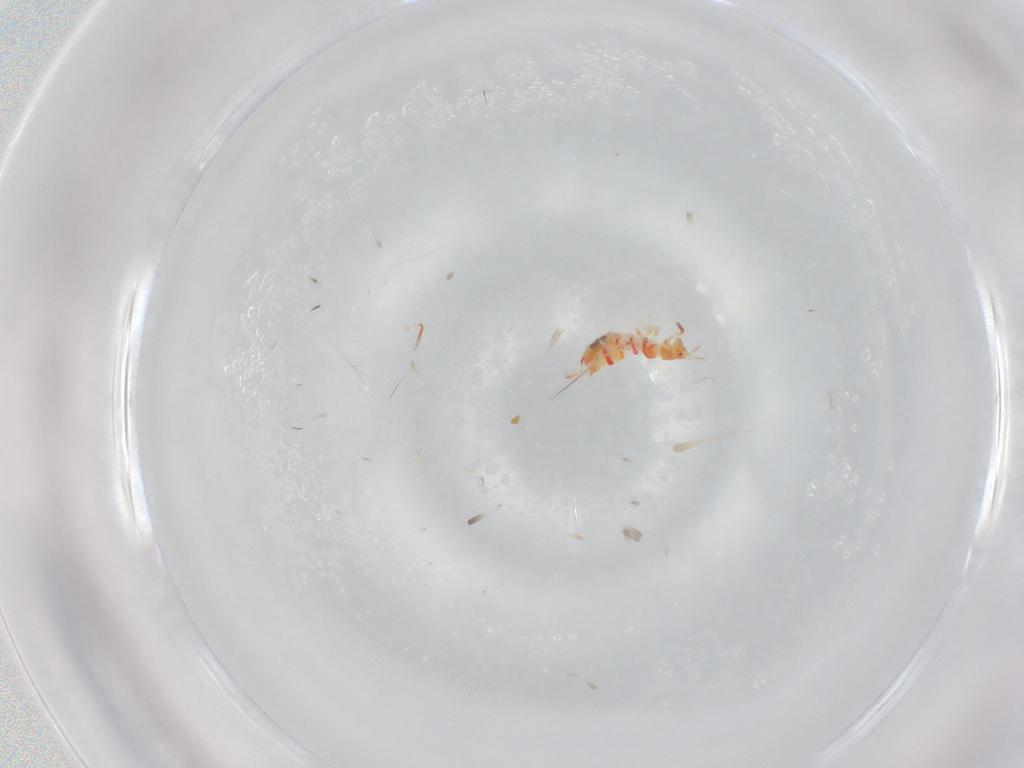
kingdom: Animalia
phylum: Arthropoda
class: Insecta
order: Thysanoptera
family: Aeolothripidae
